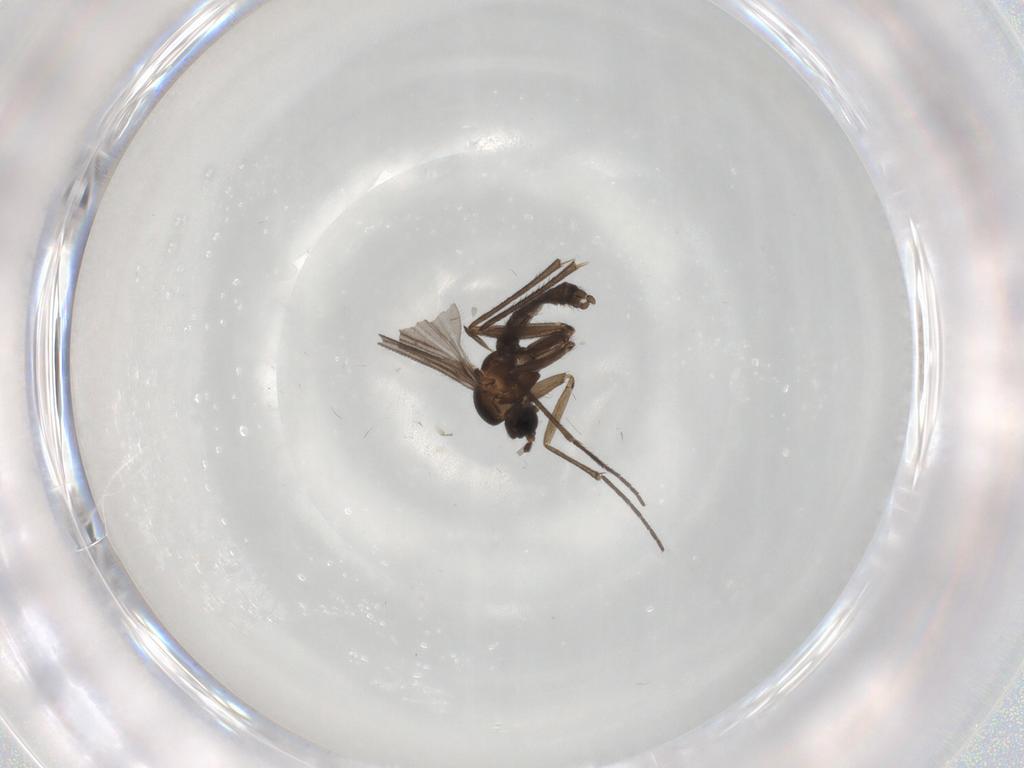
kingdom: Animalia
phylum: Arthropoda
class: Insecta
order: Diptera
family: Sciaridae
